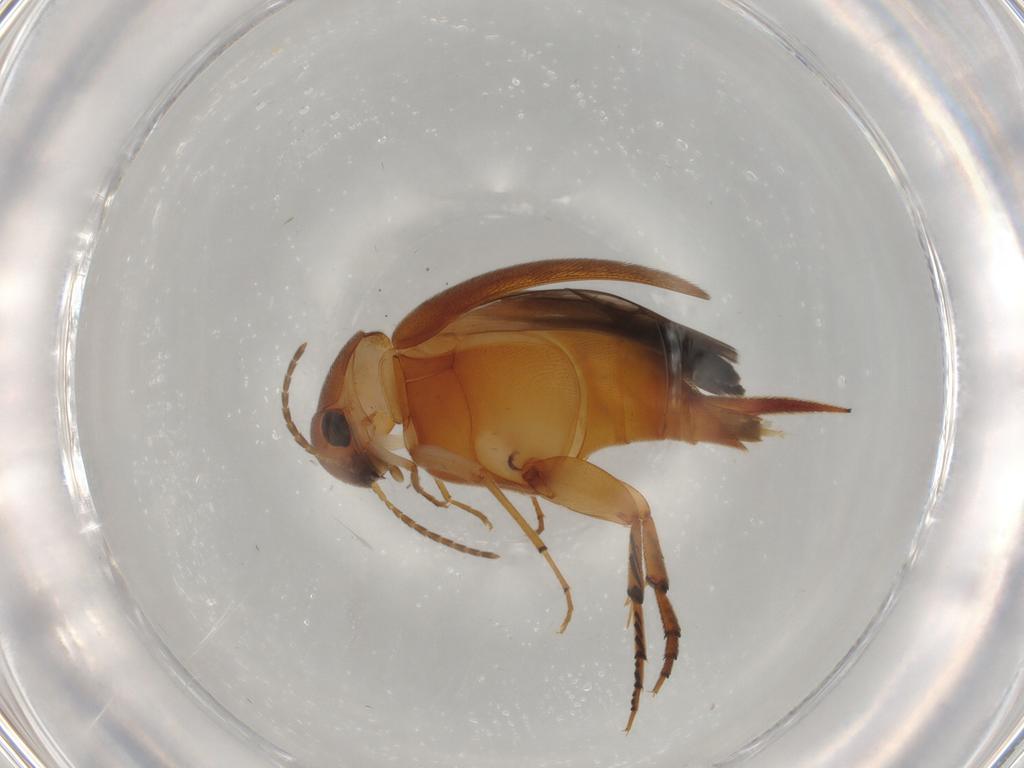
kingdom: Animalia
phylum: Arthropoda
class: Insecta
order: Coleoptera
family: Mordellidae
